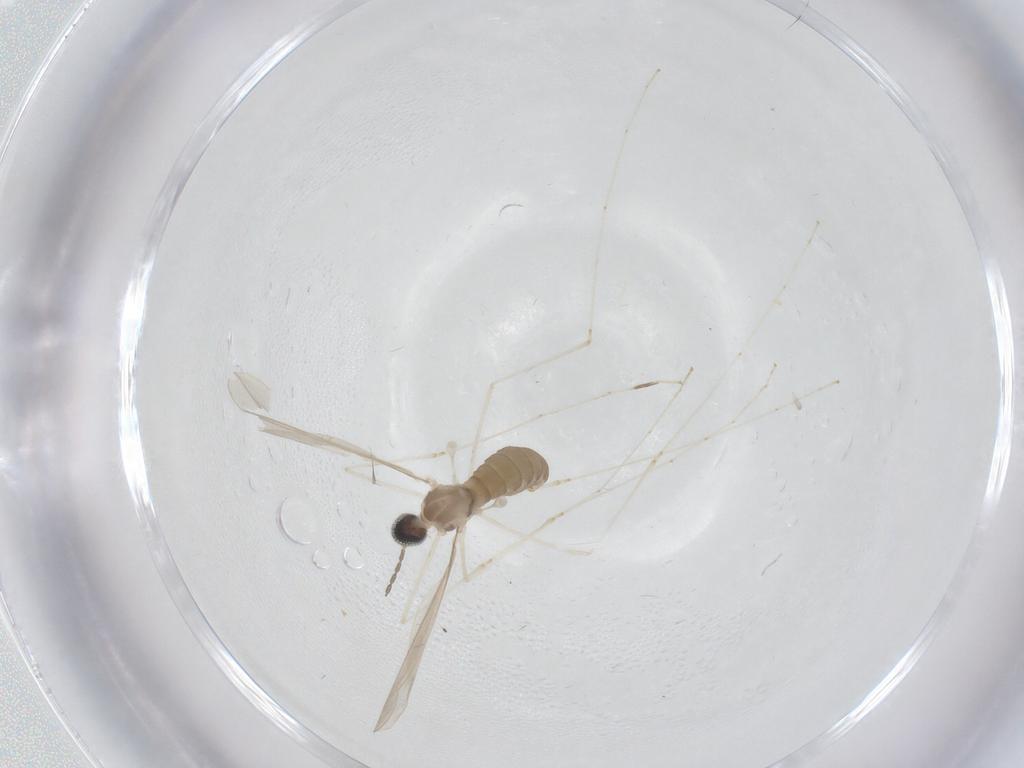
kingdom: Animalia
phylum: Arthropoda
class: Insecta
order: Diptera
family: Cecidomyiidae
